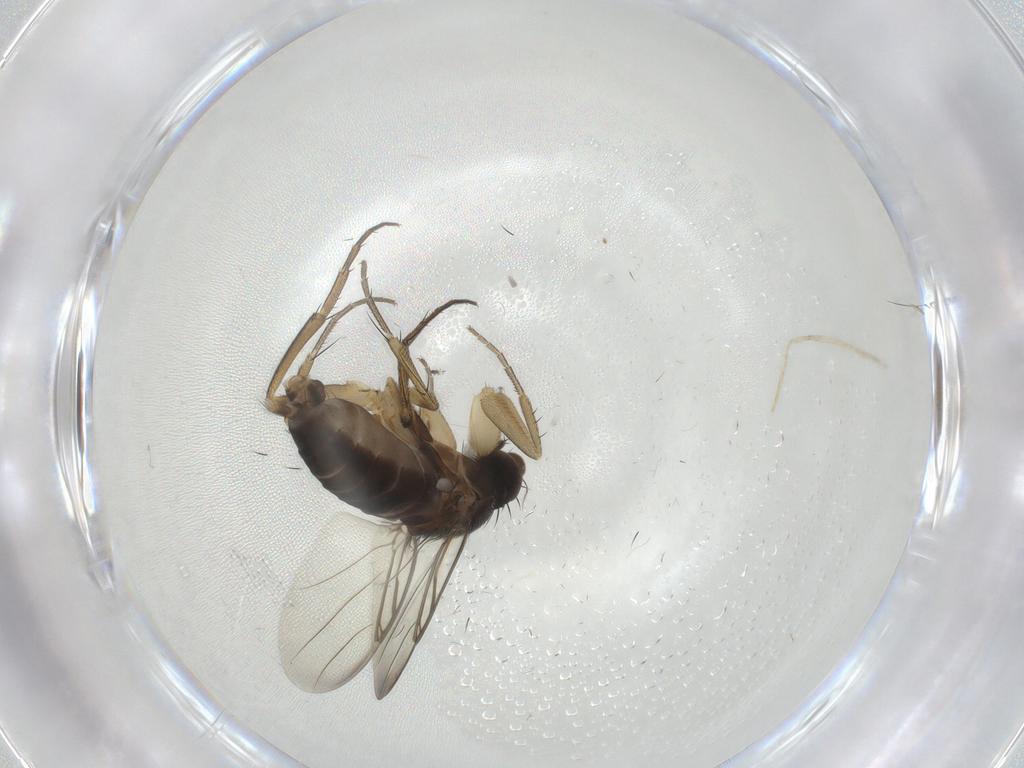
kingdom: Animalia
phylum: Arthropoda
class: Insecta
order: Diptera
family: Phoridae
